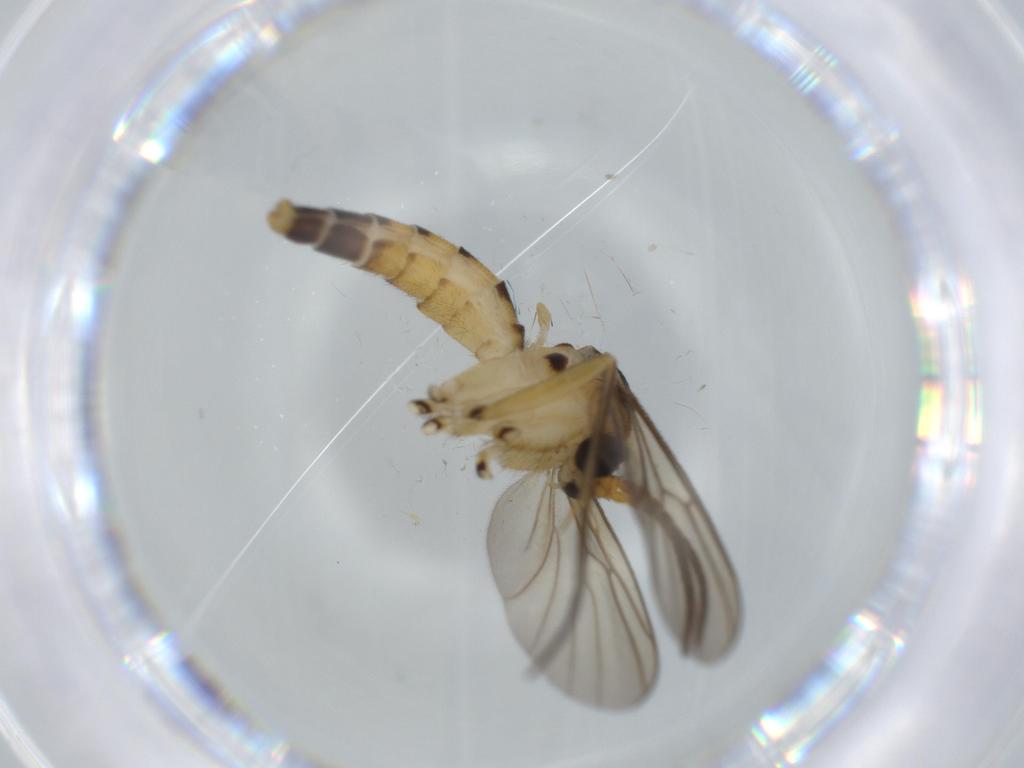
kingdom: Animalia
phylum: Arthropoda
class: Insecta
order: Diptera
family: Chironomidae
